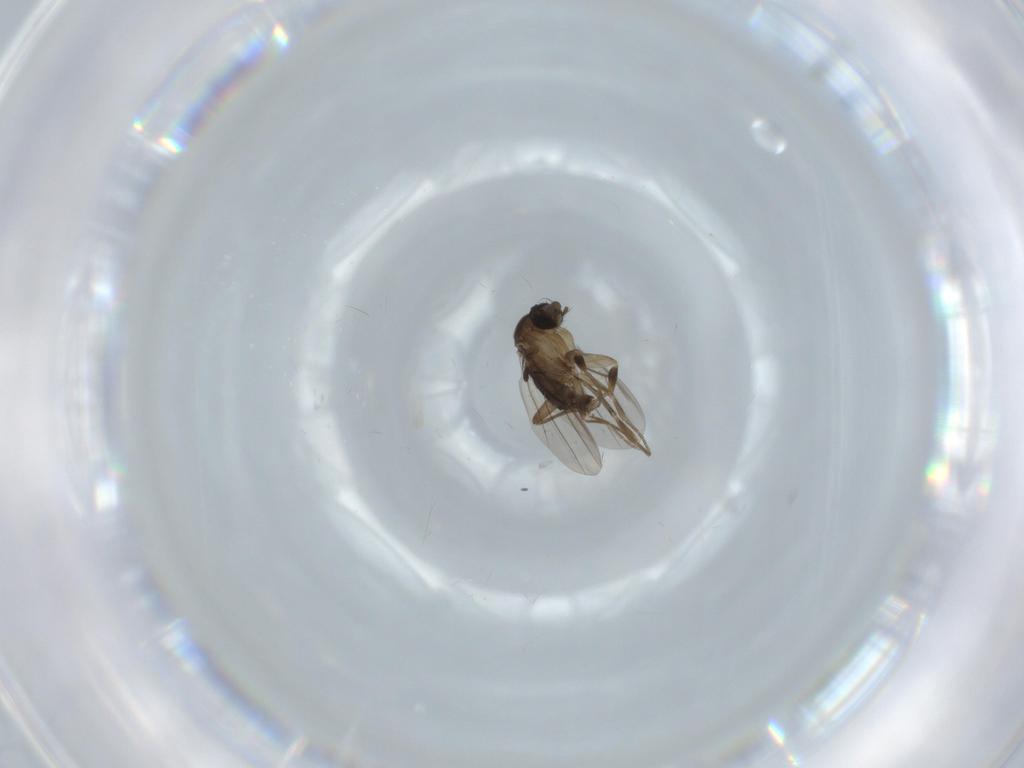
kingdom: Animalia
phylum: Arthropoda
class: Insecta
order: Diptera
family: Phoridae
